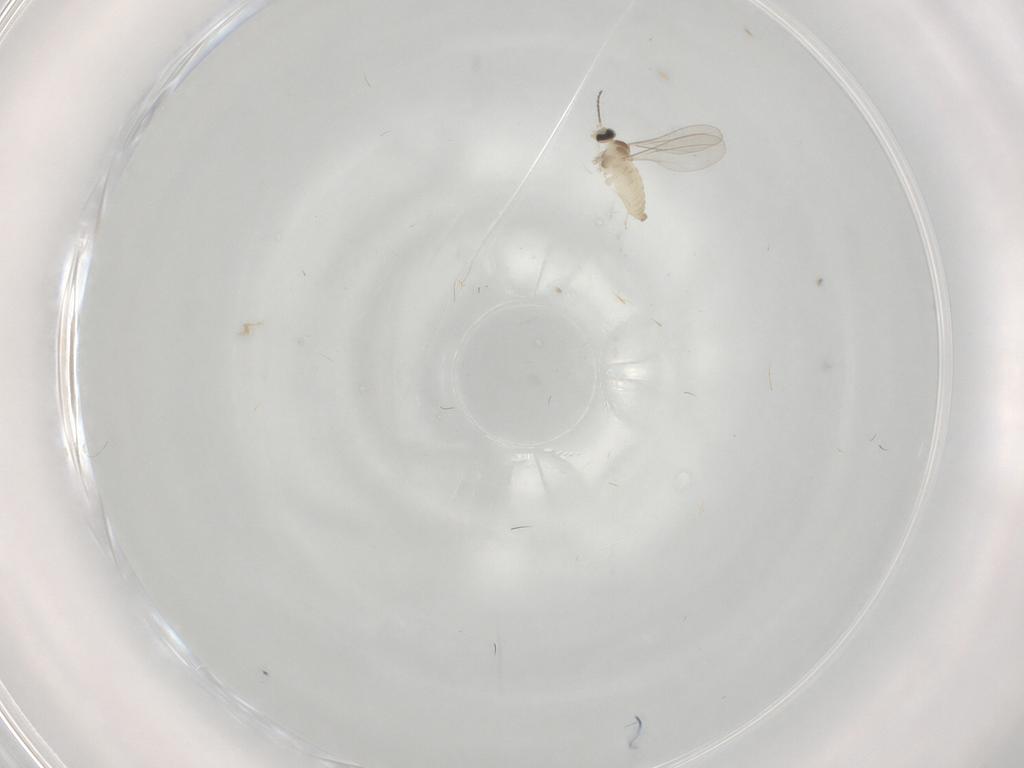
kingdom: Animalia
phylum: Arthropoda
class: Insecta
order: Diptera
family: Cecidomyiidae
